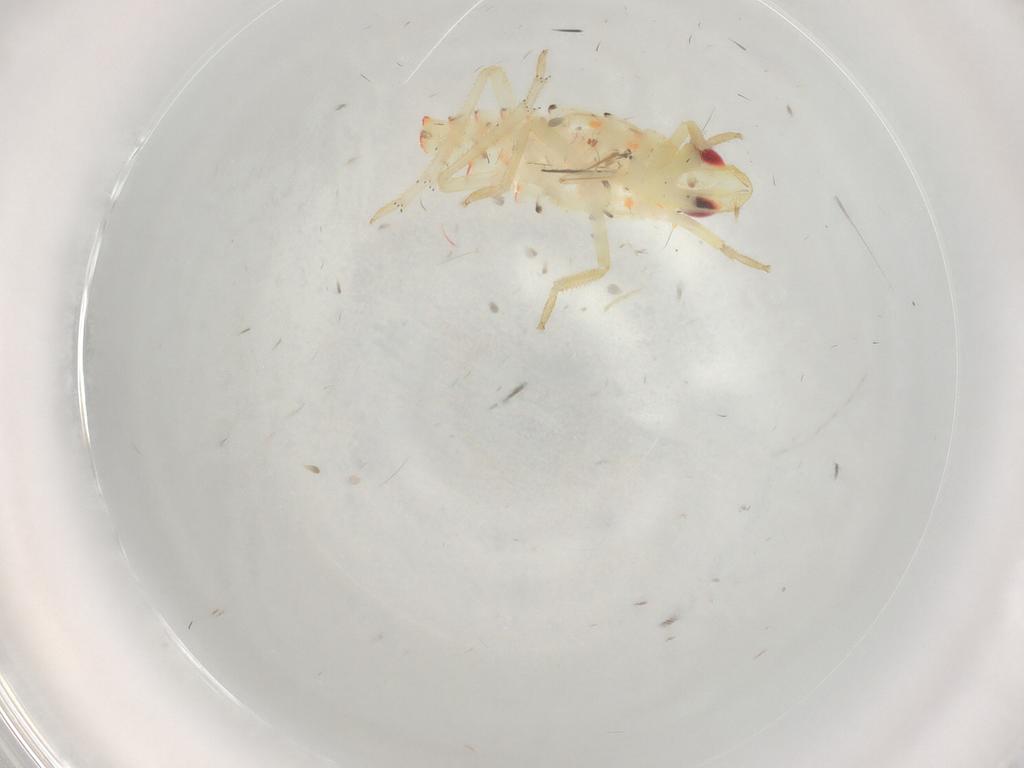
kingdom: Animalia
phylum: Arthropoda
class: Insecta
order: Hemiptera
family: Tropiduchidae
